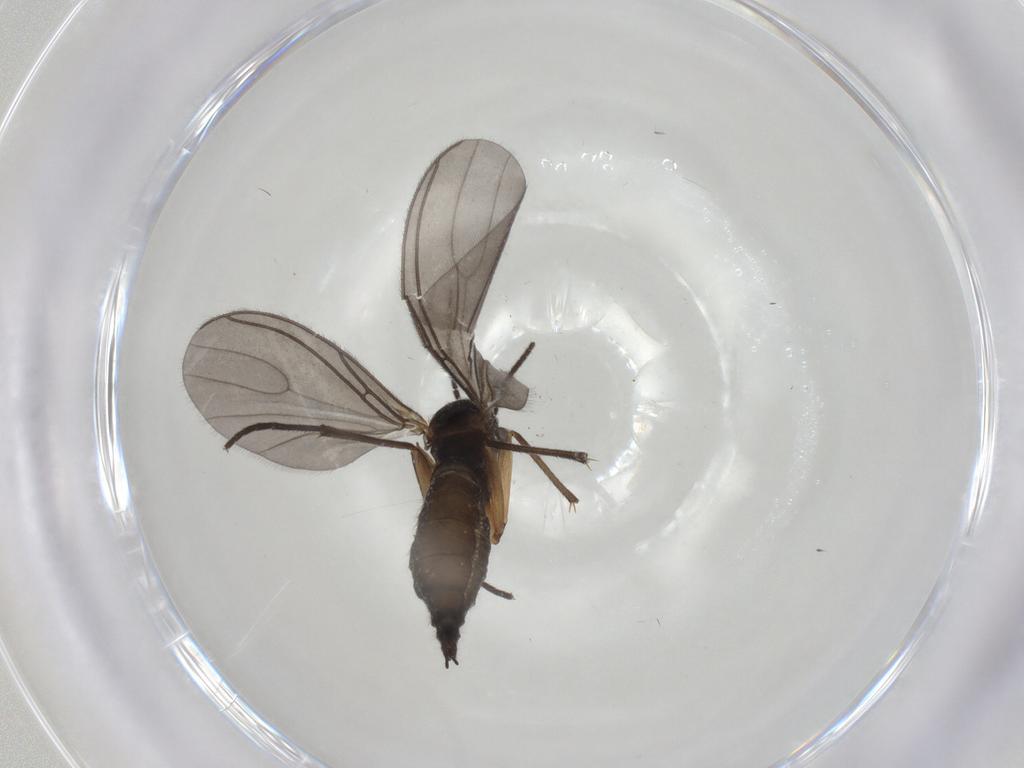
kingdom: Animalia
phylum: Arthropoda
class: Insecta
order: Diptera
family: Sciaridae
